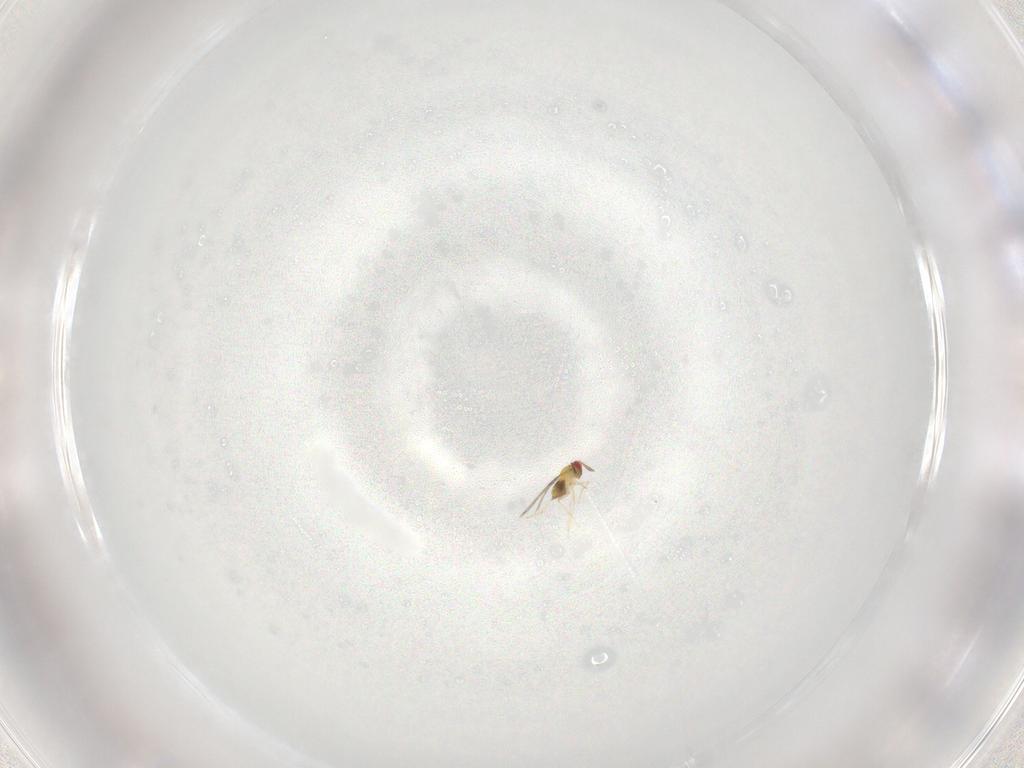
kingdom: Animalia
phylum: Arthropoda
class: Insecta
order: Hymenoptera
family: Trichogrammatidae
